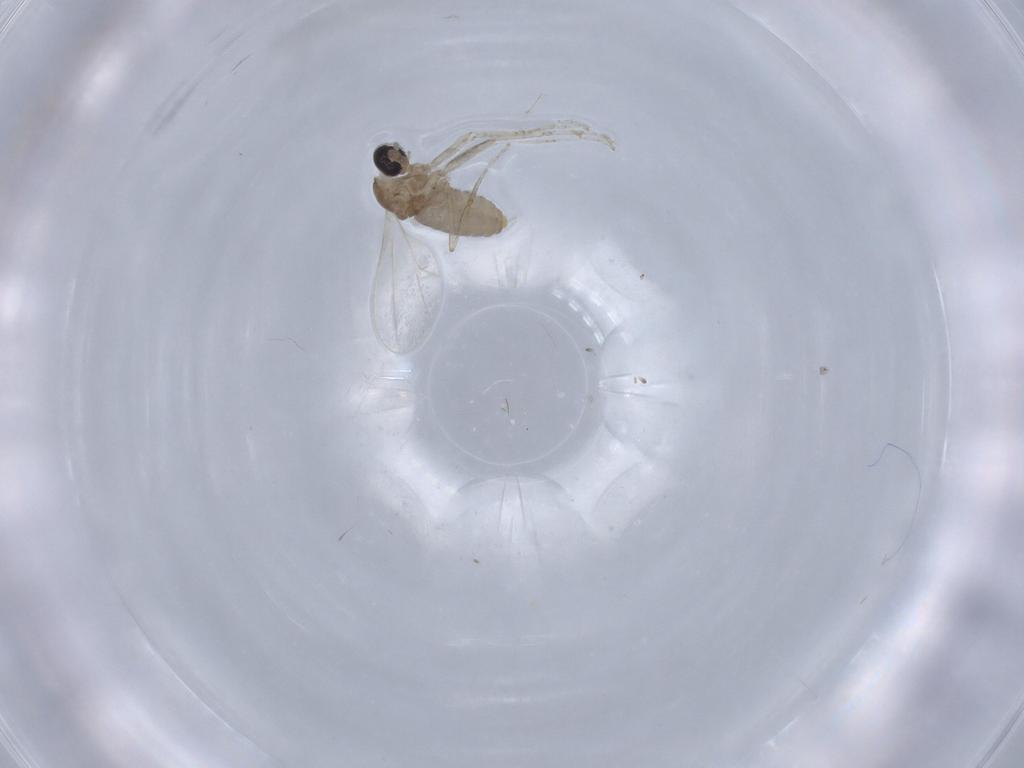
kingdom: Animalia
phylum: Arthropoda
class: Insecta
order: Diptera
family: Cecidomyiidae
